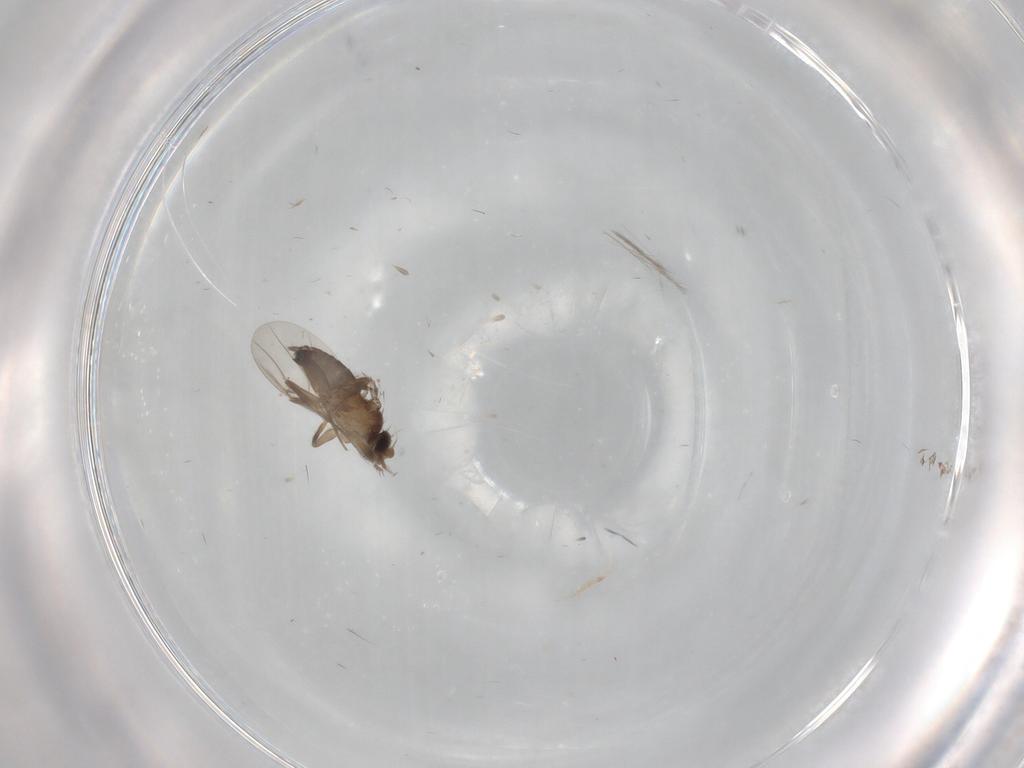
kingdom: Animalia
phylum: Arthropoda
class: Insecta
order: Diptera
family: Phoridae
